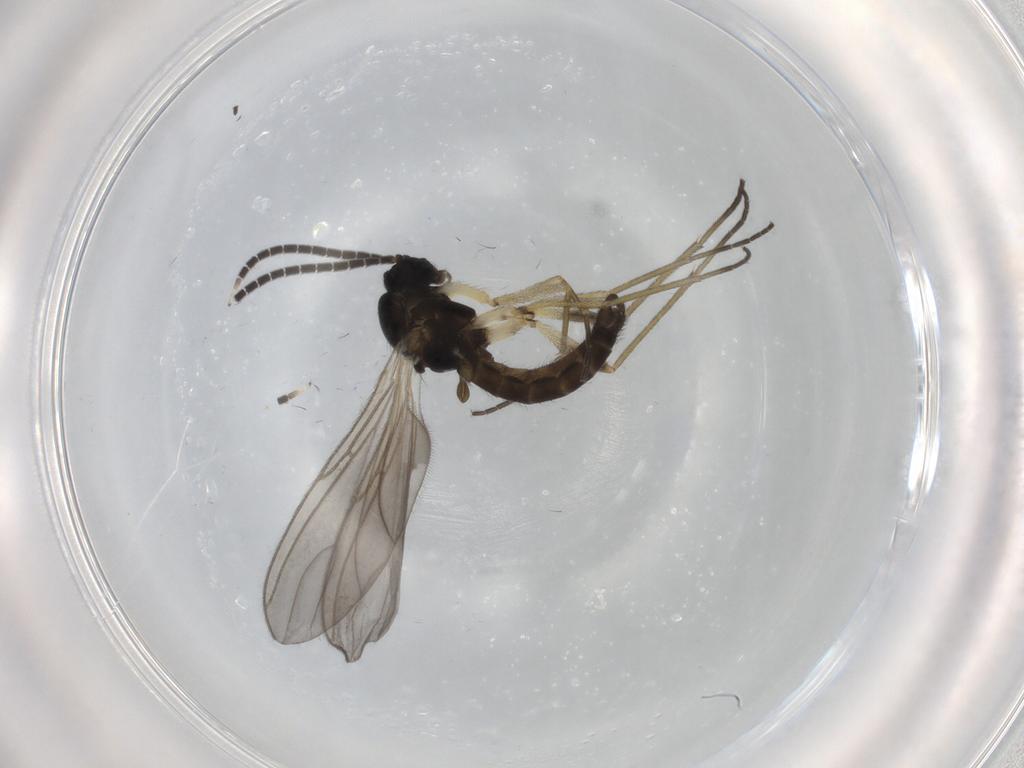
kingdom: Animalia
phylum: Arthropoda
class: Insecta
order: Diptera
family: Sciaridae
